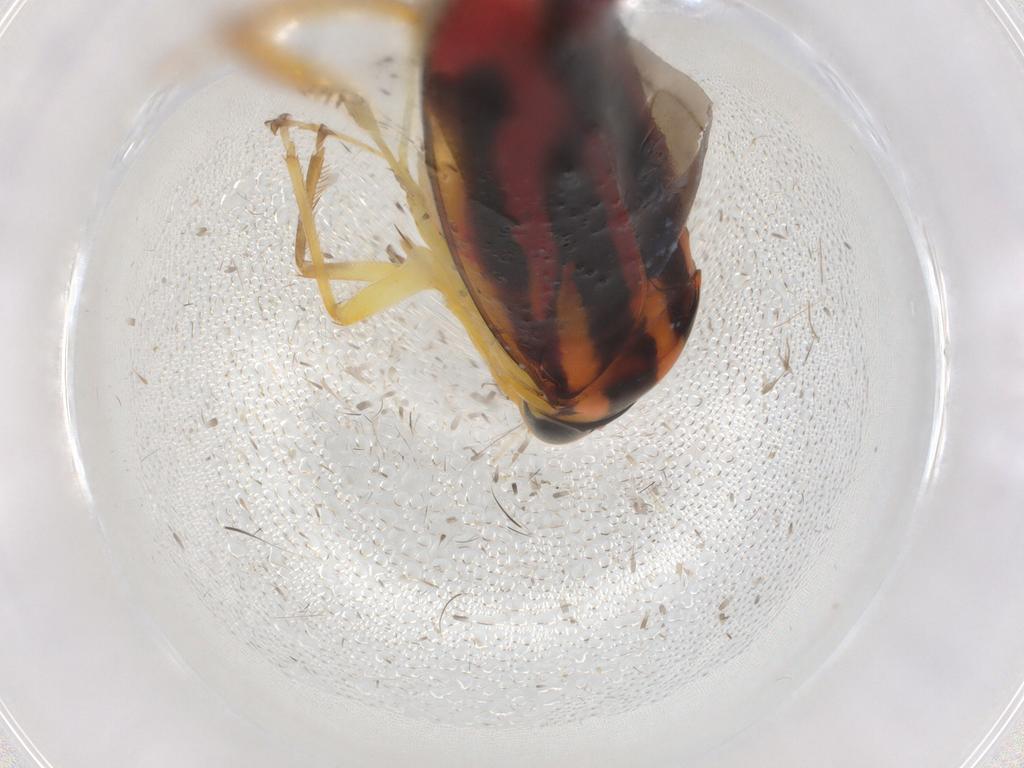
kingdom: Animalia
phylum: Arthropoda
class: Insecta
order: Hemiptera
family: Cicadellidae
